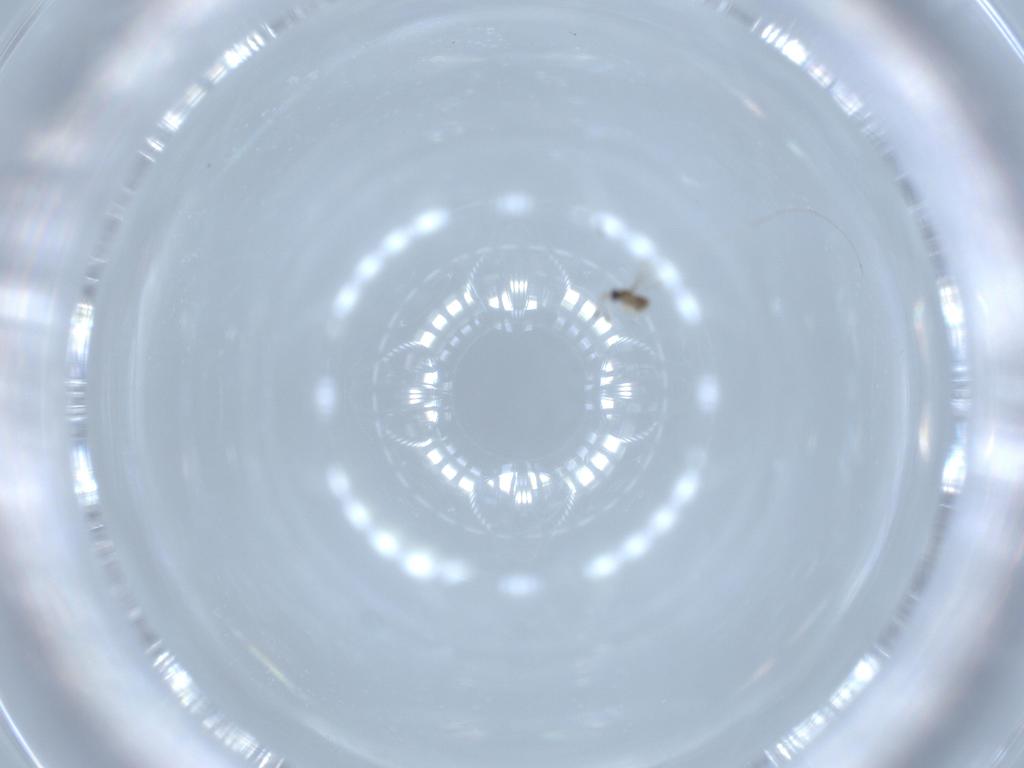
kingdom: Animalia
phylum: Arthropoda
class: Insecta
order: Hymenoptera
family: Mymaridae
